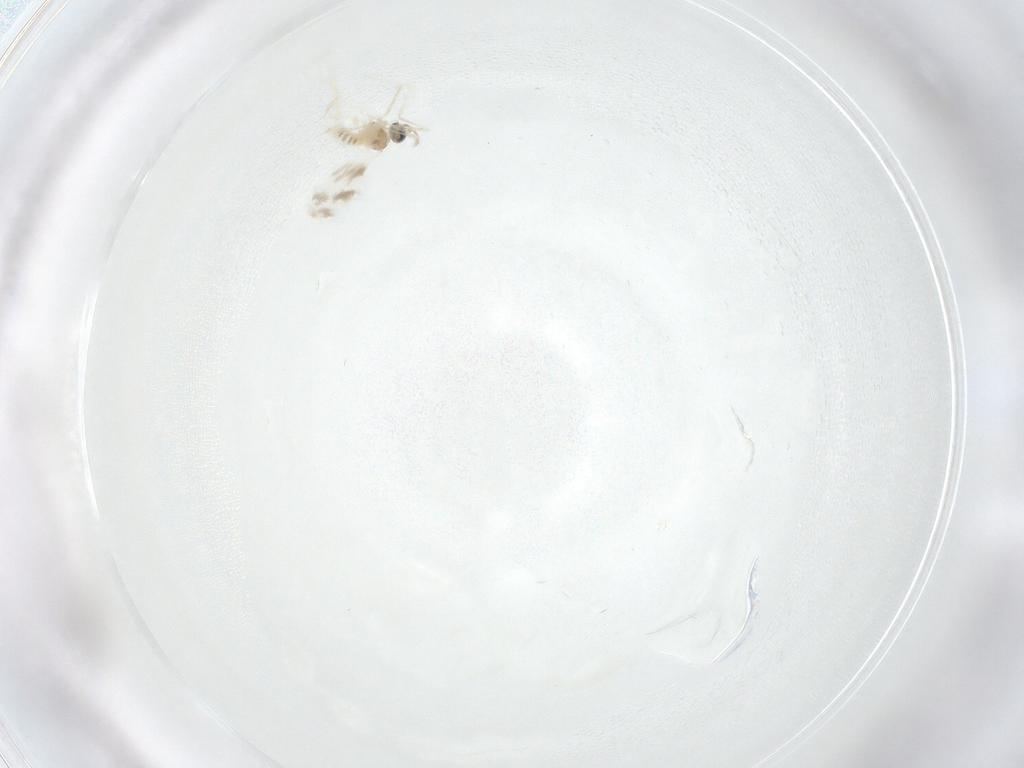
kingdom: Animalia
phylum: Arthropoda
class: Insecta
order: Diptera
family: Cecidomyiidae
